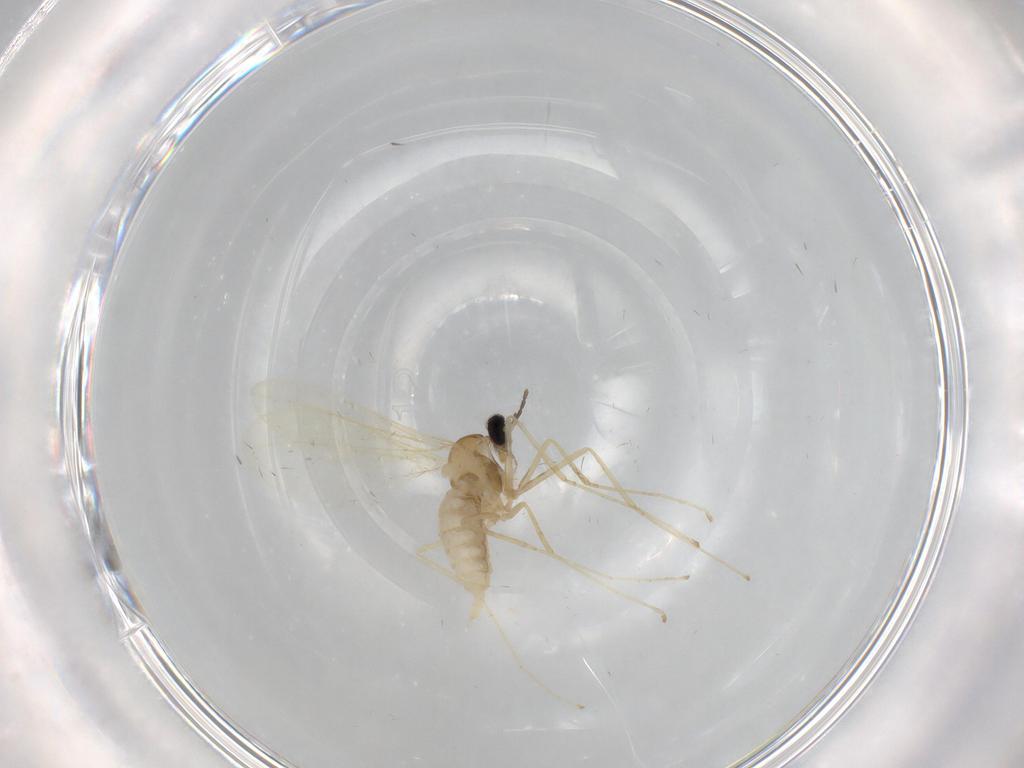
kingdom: Animalia
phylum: Arthropoda
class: Insecta
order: Diptera
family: Cecidomyiidae
